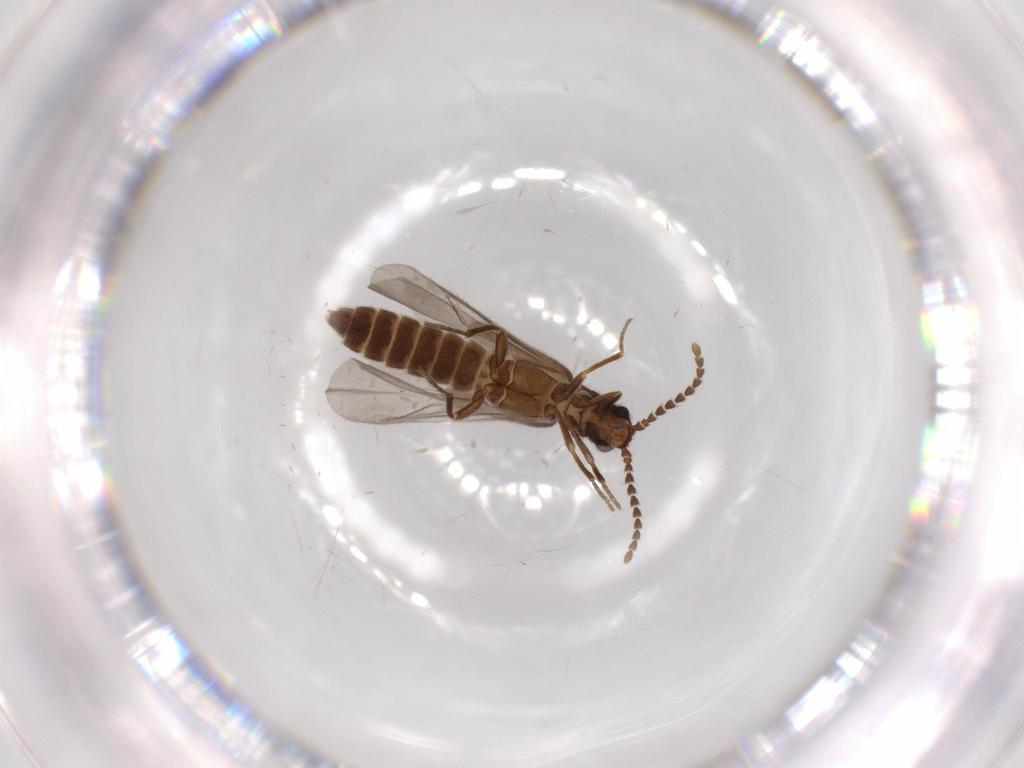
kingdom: Animalia
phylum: Arthropoda
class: Insecta
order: Coleoptera
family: Omethidae
